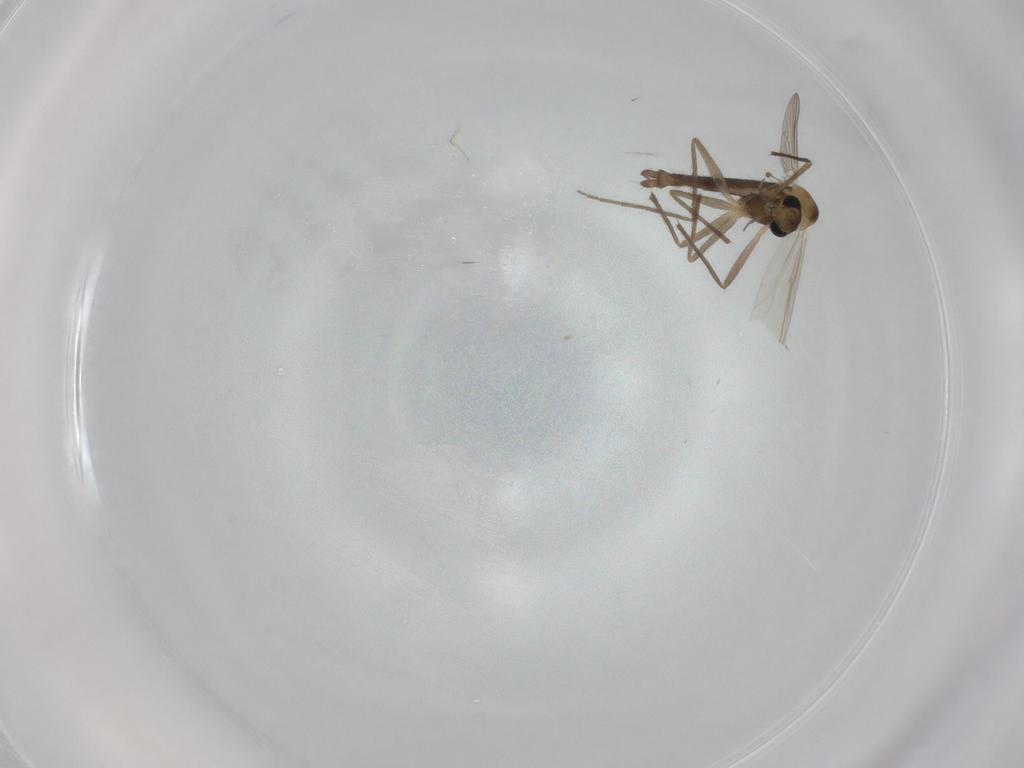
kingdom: Animalia
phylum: Arthropoda
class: Insecta
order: Diptera
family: Chironomidae
